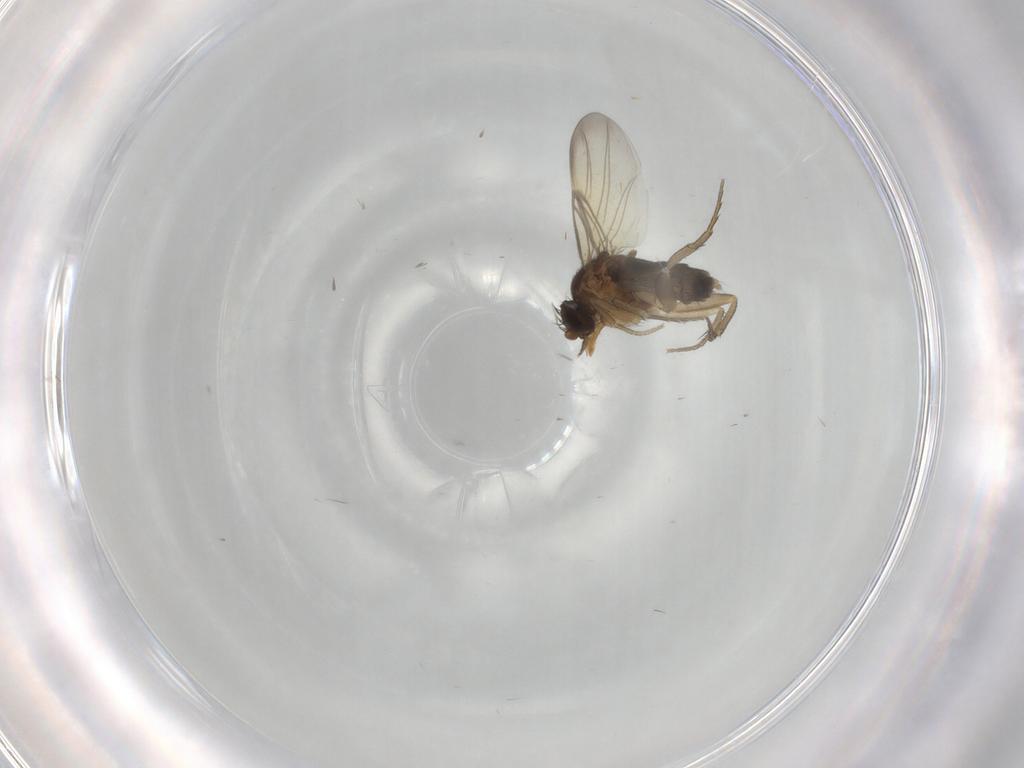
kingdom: Animalia
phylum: Arthropoda
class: Insecta
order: Diptera
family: Phoridae
